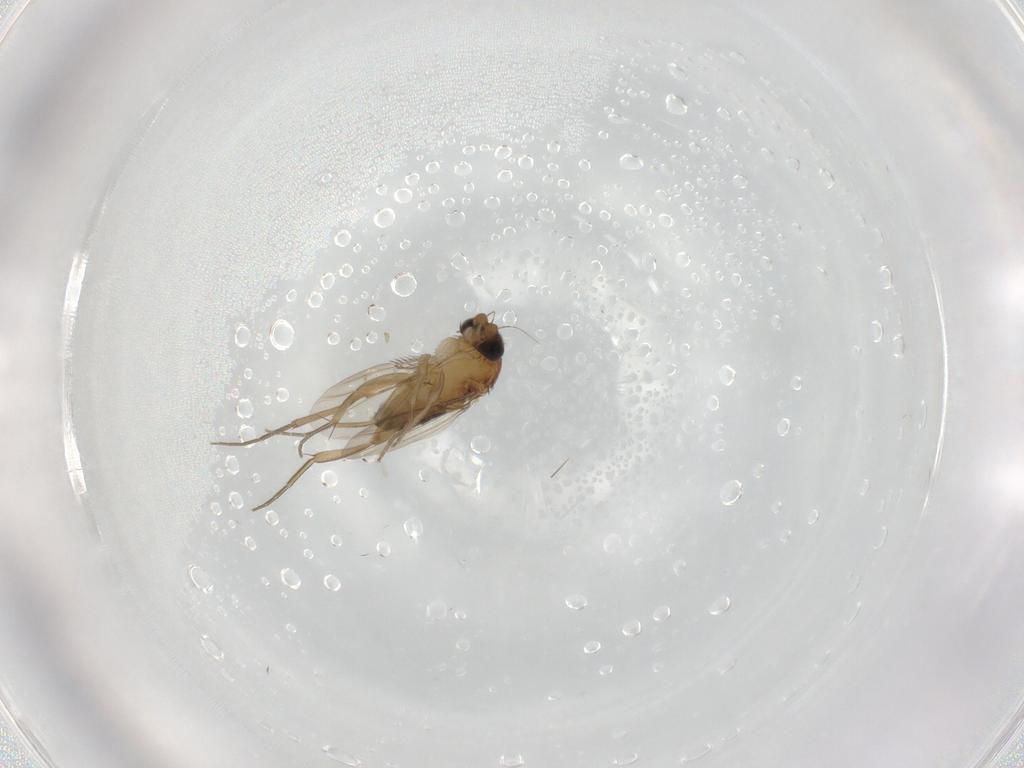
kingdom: Animalia
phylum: Arthropoda
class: Insecta
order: Diptera
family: Phoridae
